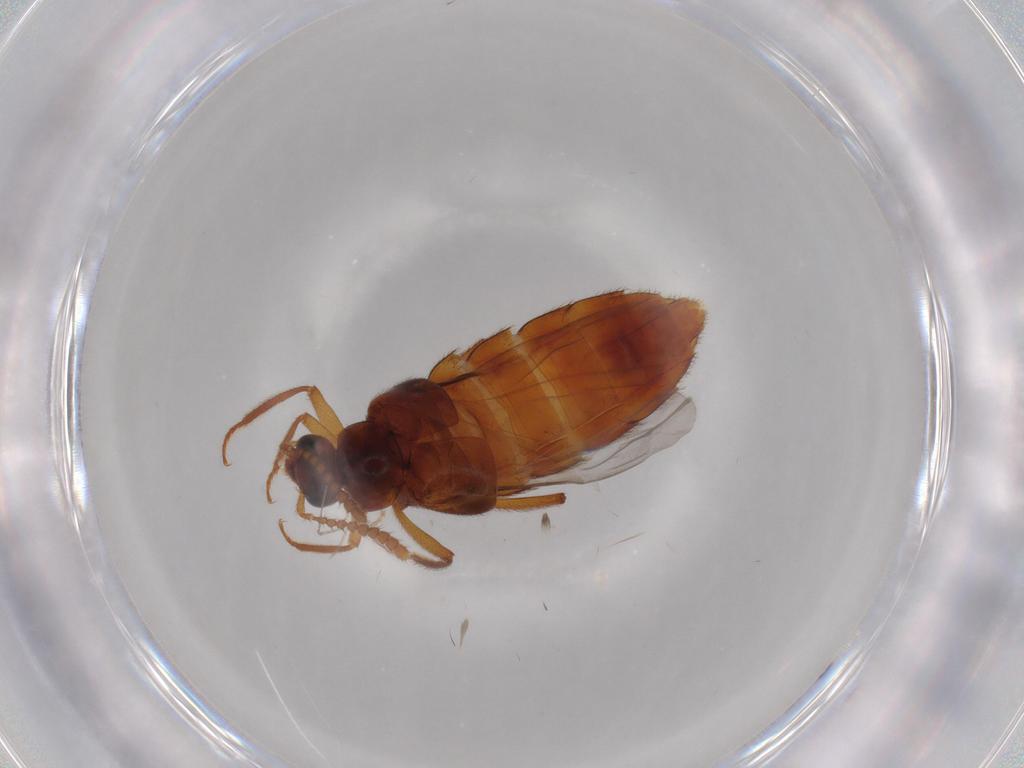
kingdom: Animalia
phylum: Arthropoda
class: Insecta
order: Coleoptera
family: Staphylinidae
